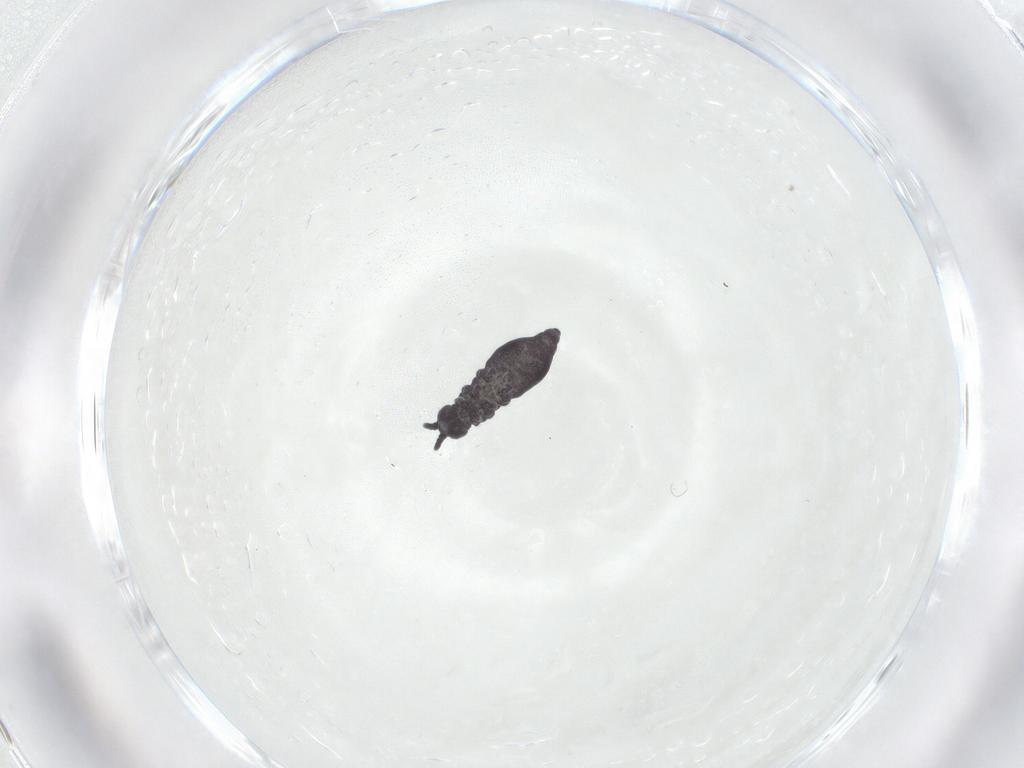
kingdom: Animalia
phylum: Arthropoda
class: Collembola
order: Poduromorpha
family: Hypogastruridae
